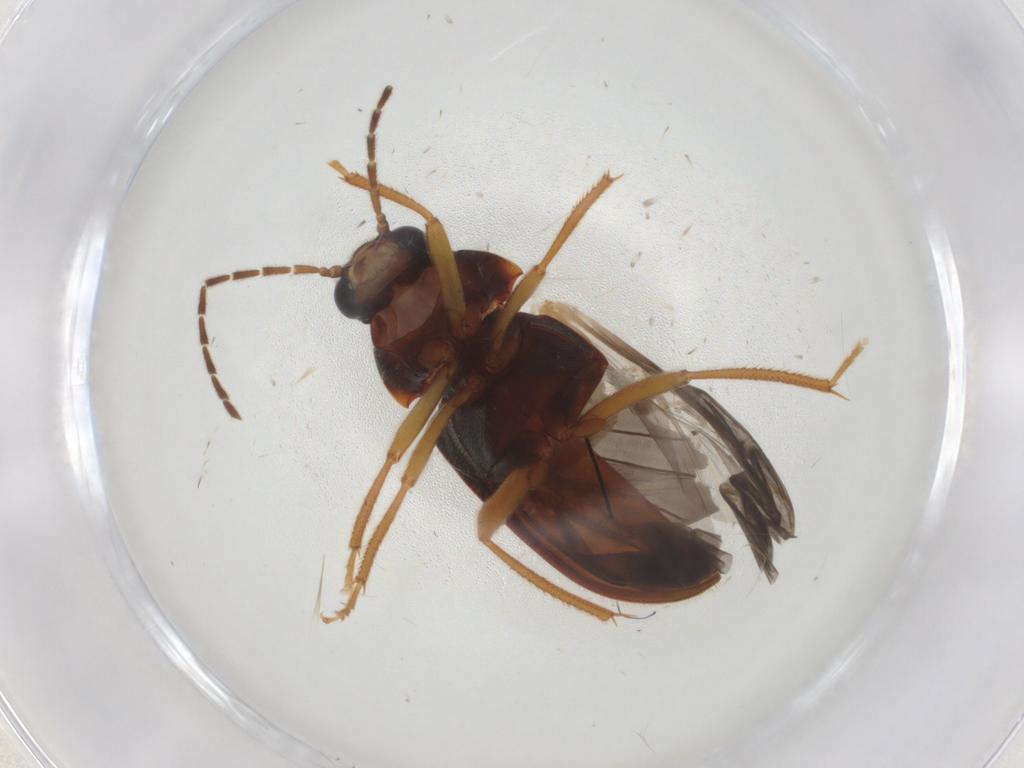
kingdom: Animalia
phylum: Arthropoda
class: Insecta
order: Coleoptera
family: Ptilodactylidae
